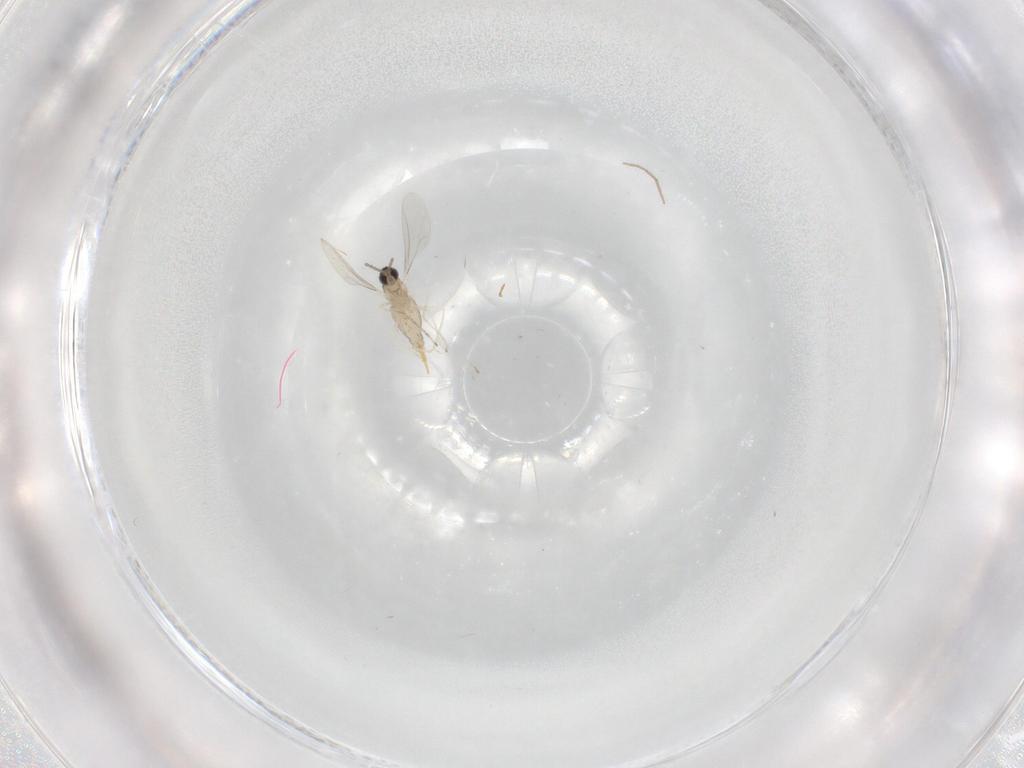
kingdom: Animalia
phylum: Arthropoda
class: Insecta
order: Diptera
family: Cecidomyiidae
